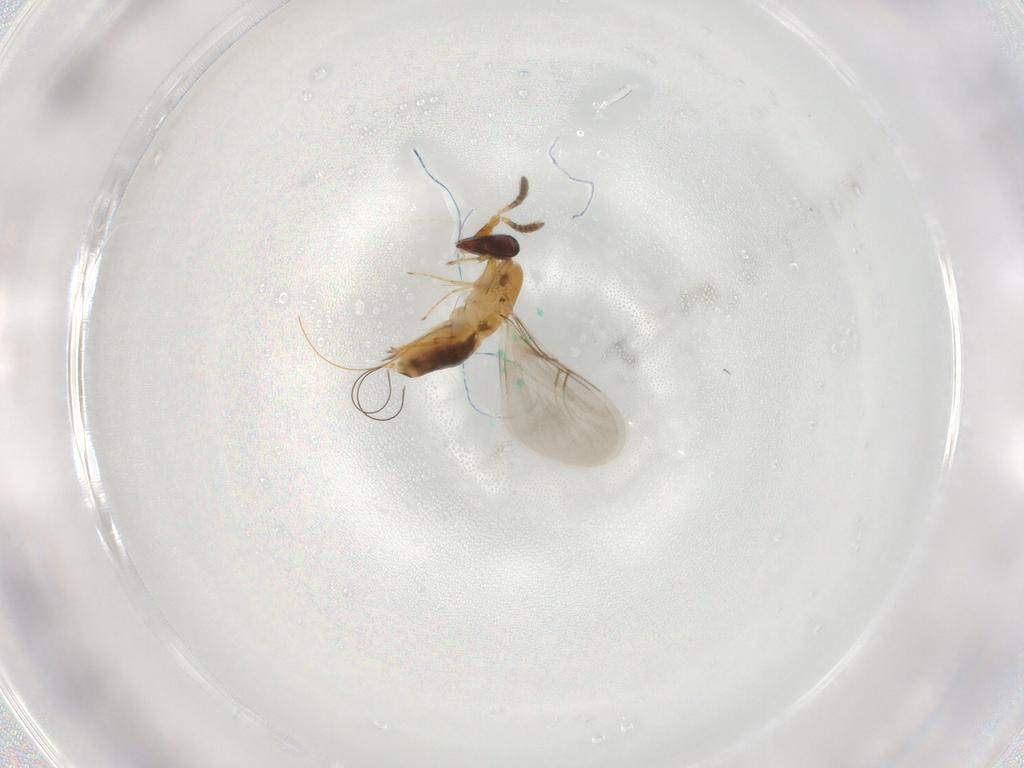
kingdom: Animalia
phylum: Arthropoda
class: Insecta
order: Hymenoptera
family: Agaonidae
